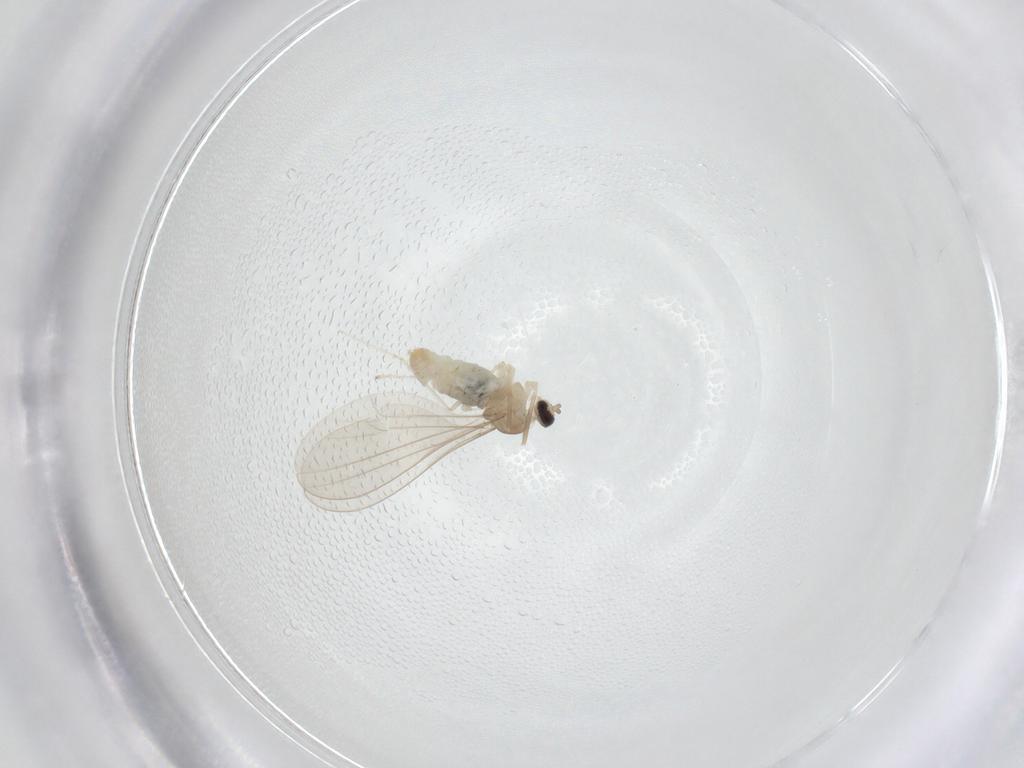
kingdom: Animalia
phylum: Arthropoda
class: Insecta
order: Diptera
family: Cecidomyiidae
